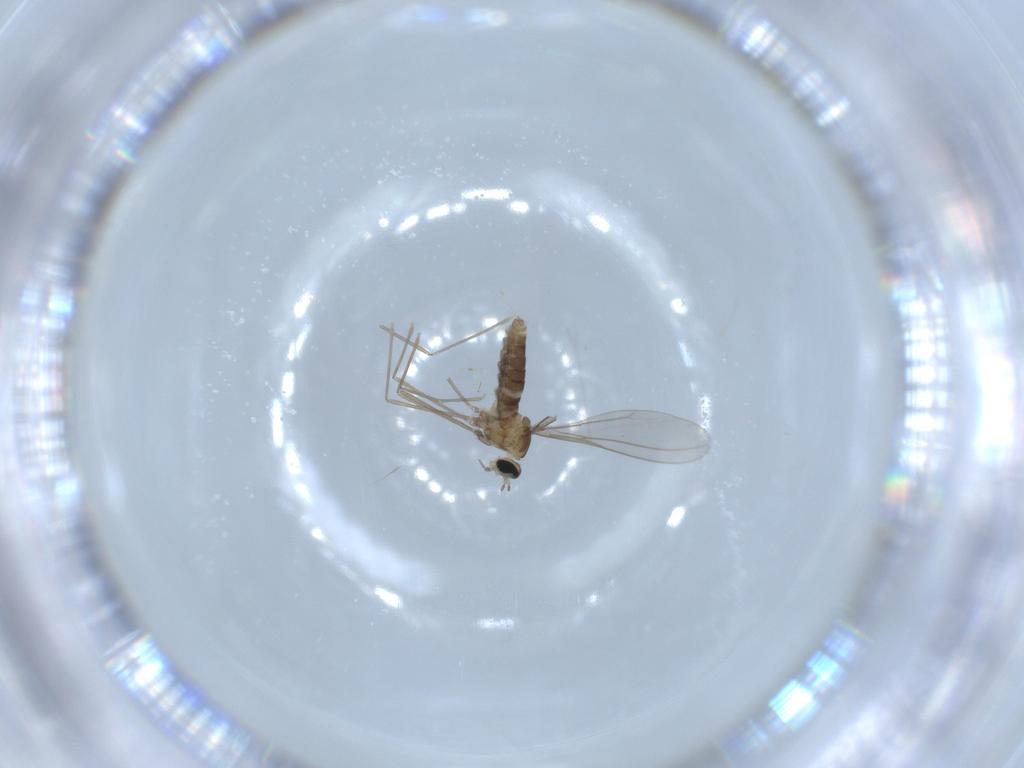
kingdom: Animalia
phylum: Arthropoda
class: Insecta
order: Diptera
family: Cecidomyiidae
